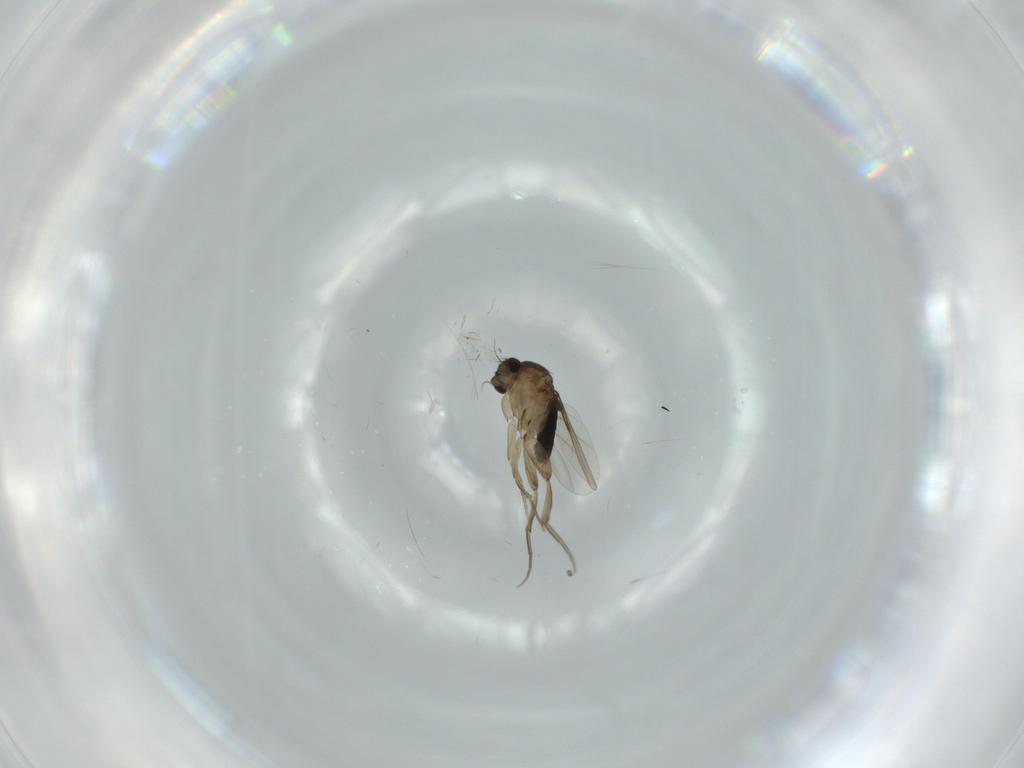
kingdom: Animalia
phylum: Arthropoda
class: Insecta
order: Diptera
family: Phoridae
